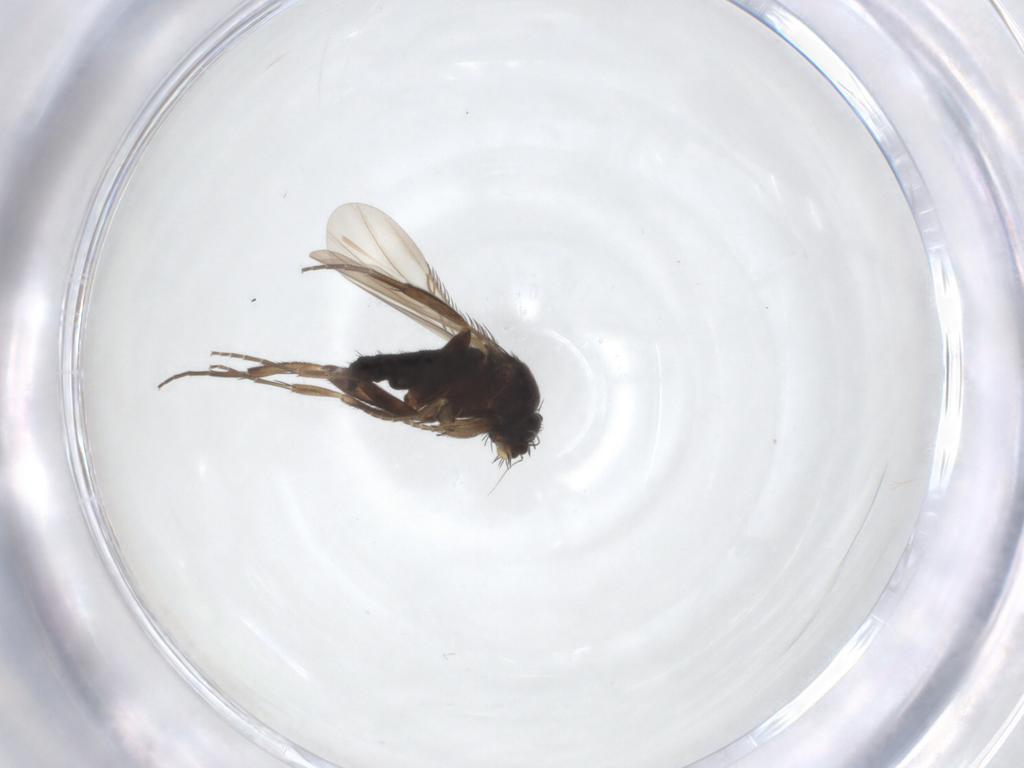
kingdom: Animalia
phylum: Arthropoda
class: Insecta
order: Diptera
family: Phoridae
